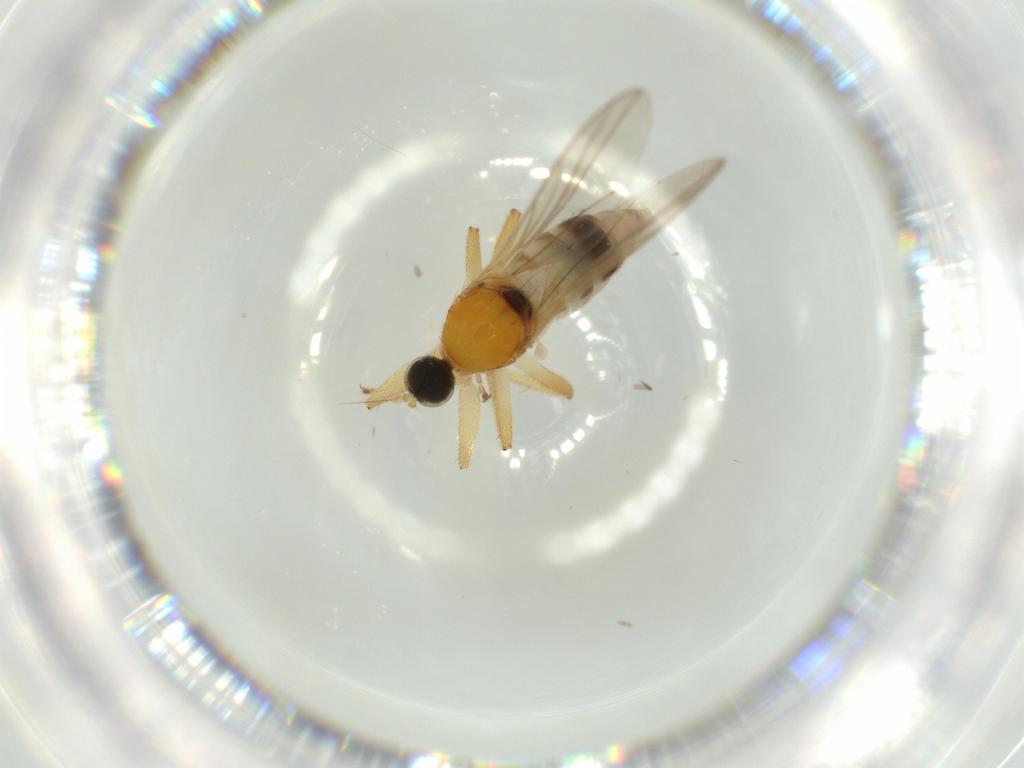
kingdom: Animalia
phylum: Arthropoda
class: Insecta
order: Diptera
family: Hybotidae
